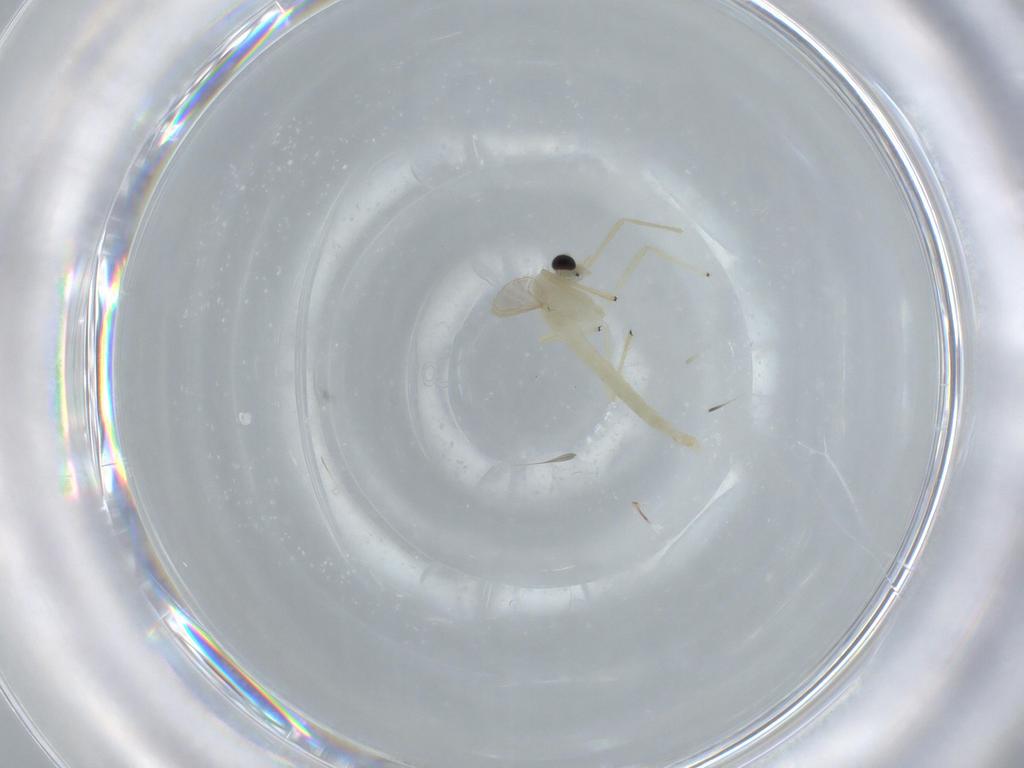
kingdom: Animalia
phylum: Arthropoda
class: Insecta
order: Diptera
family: Chironomidae
